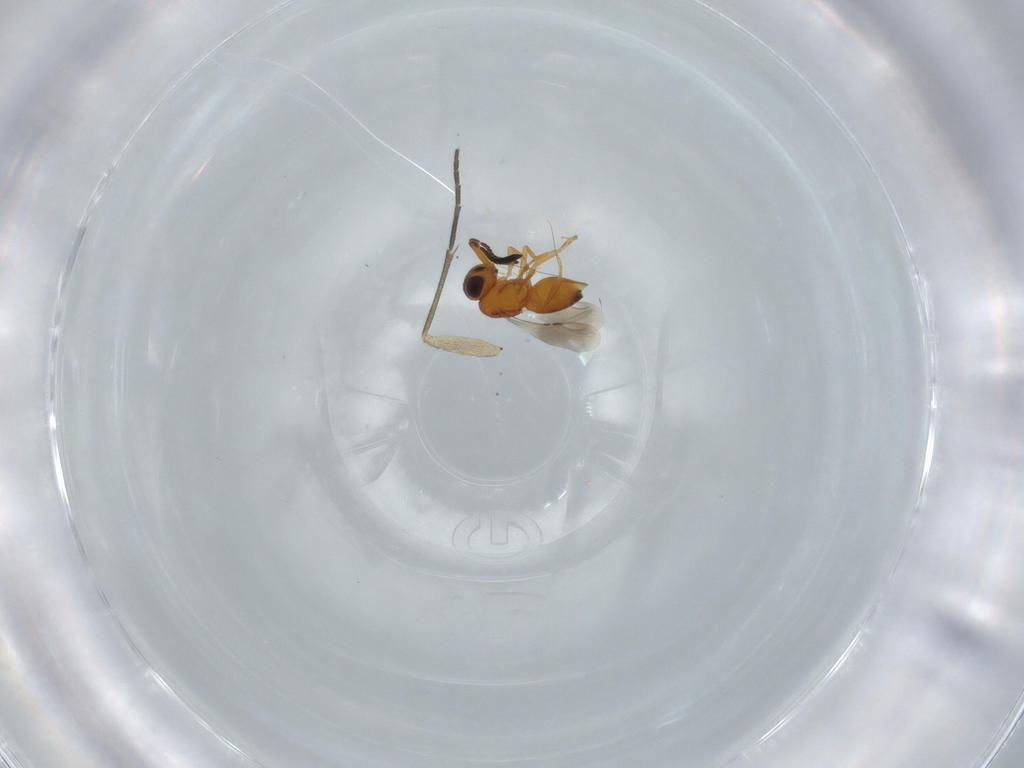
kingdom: Animalia
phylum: Arthropoda
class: Insecta
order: Hymenoptera
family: Ceraphronidae
